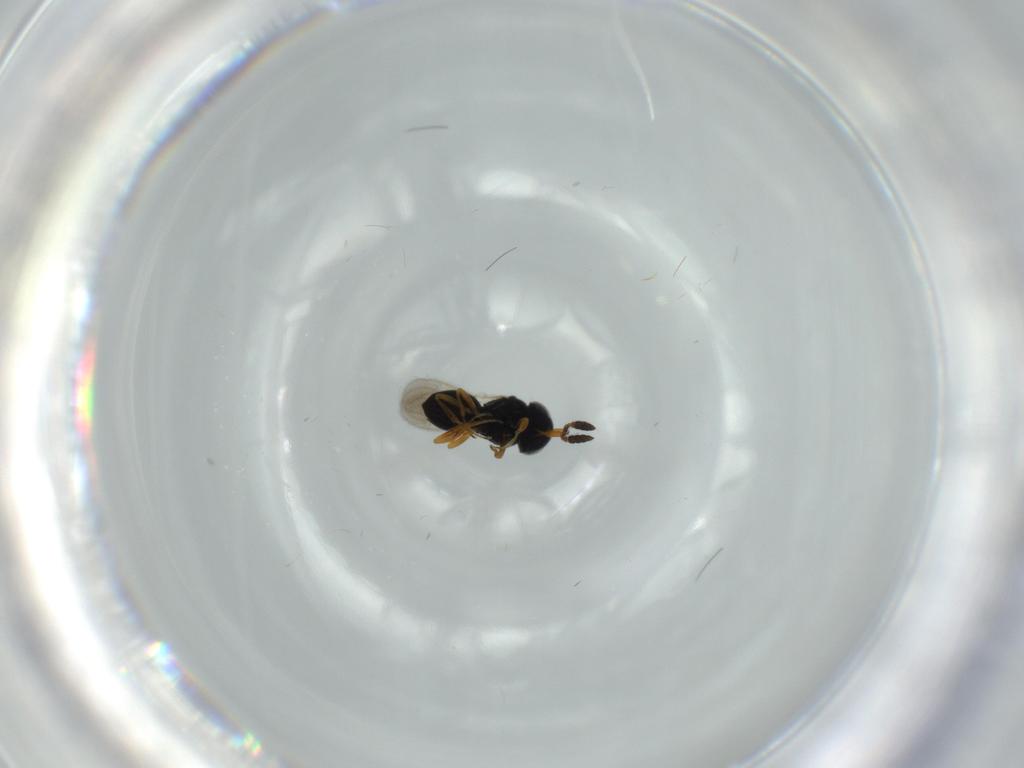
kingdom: Animalia
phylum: Arthropoda
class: Insecta
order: Hymenoptera
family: Scelionidae
